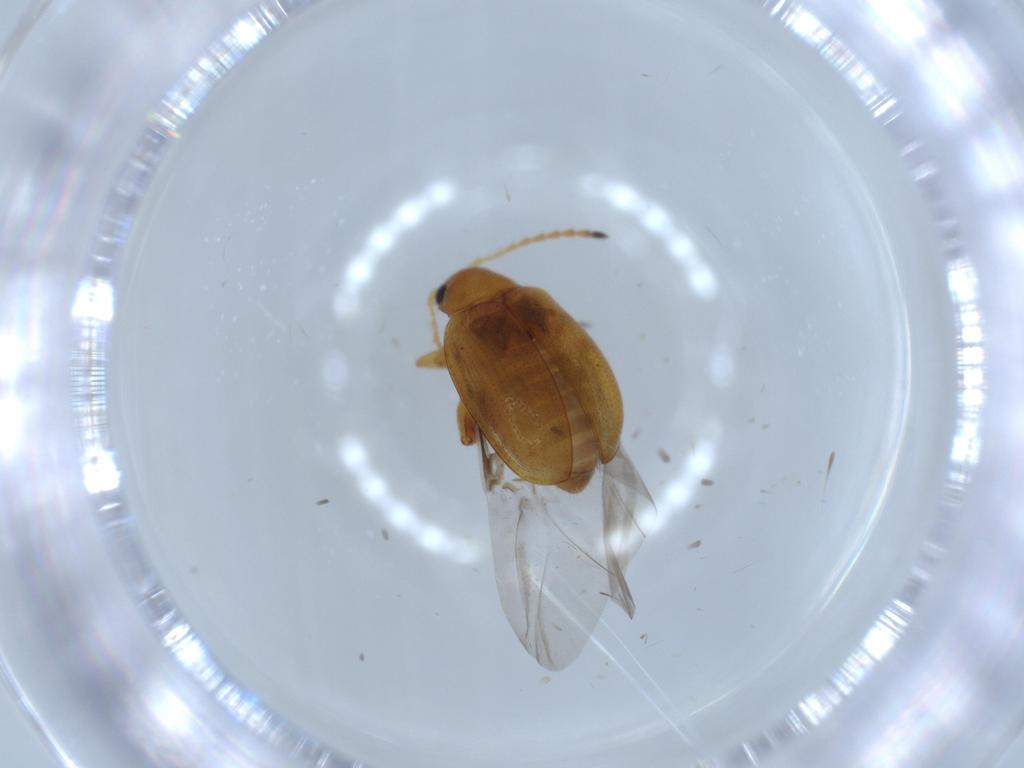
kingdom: Animalia
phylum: Arthropoda
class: Insecta
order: Coleoptera
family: Chrysomelidae
